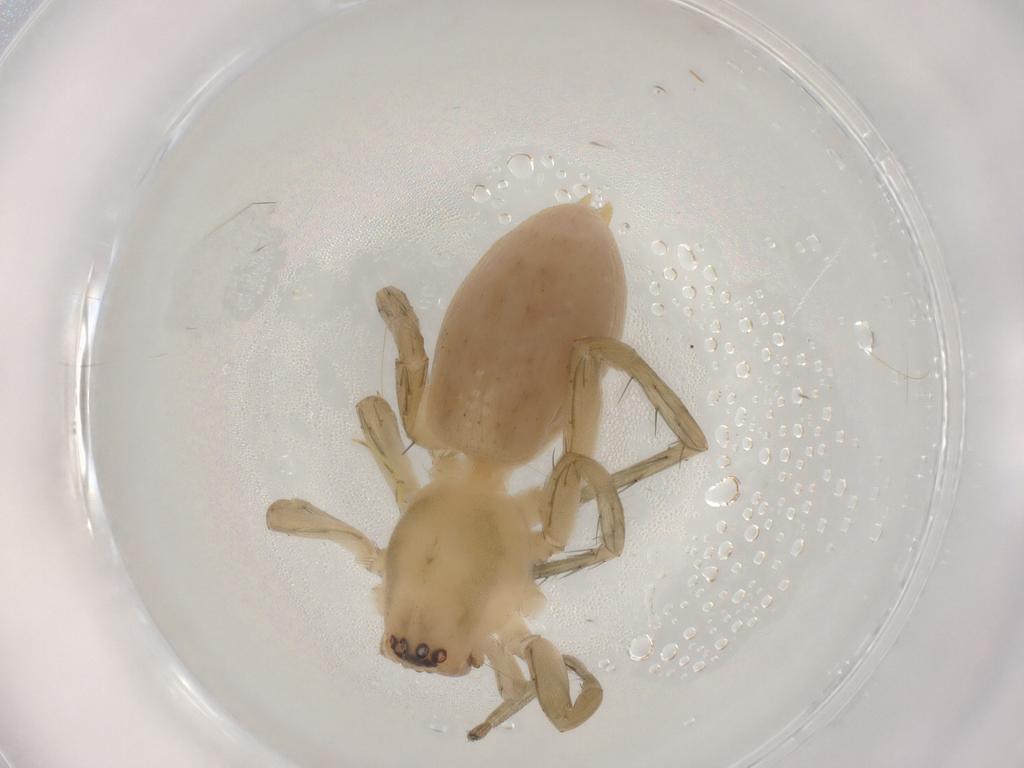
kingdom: Animalia
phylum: Arthropoda
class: Arachnida
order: Araneae
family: Anyphaenidae
